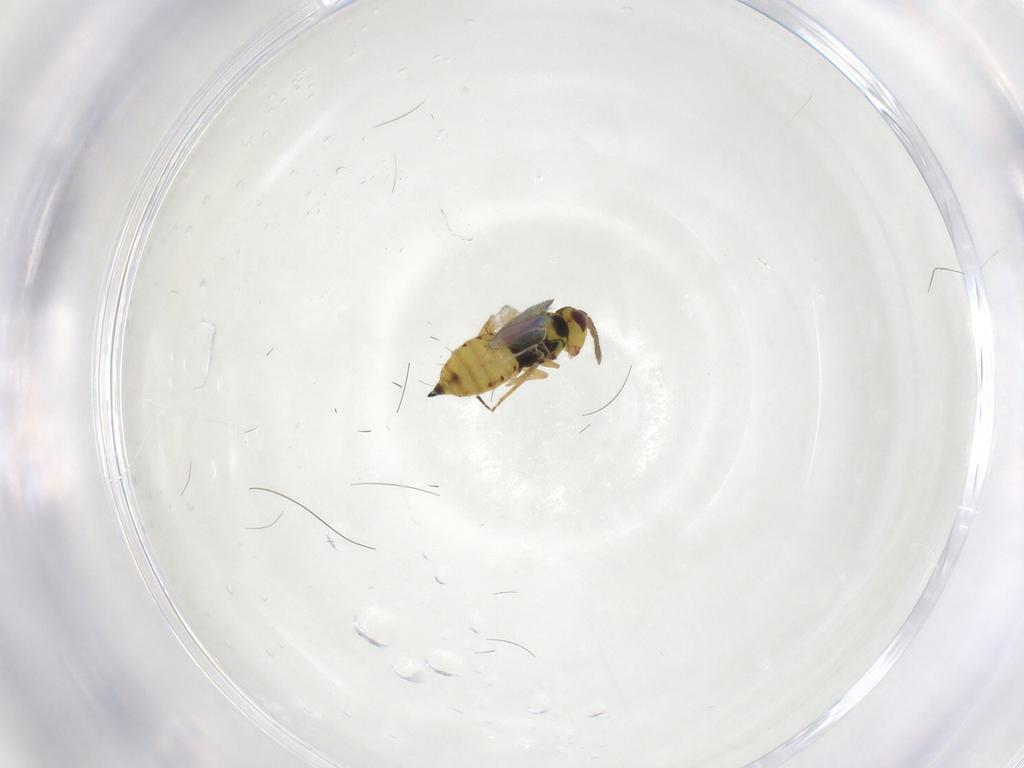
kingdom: Animalia
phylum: Arthropoda
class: Insecta
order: Hymenoptera
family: Eulophidae
